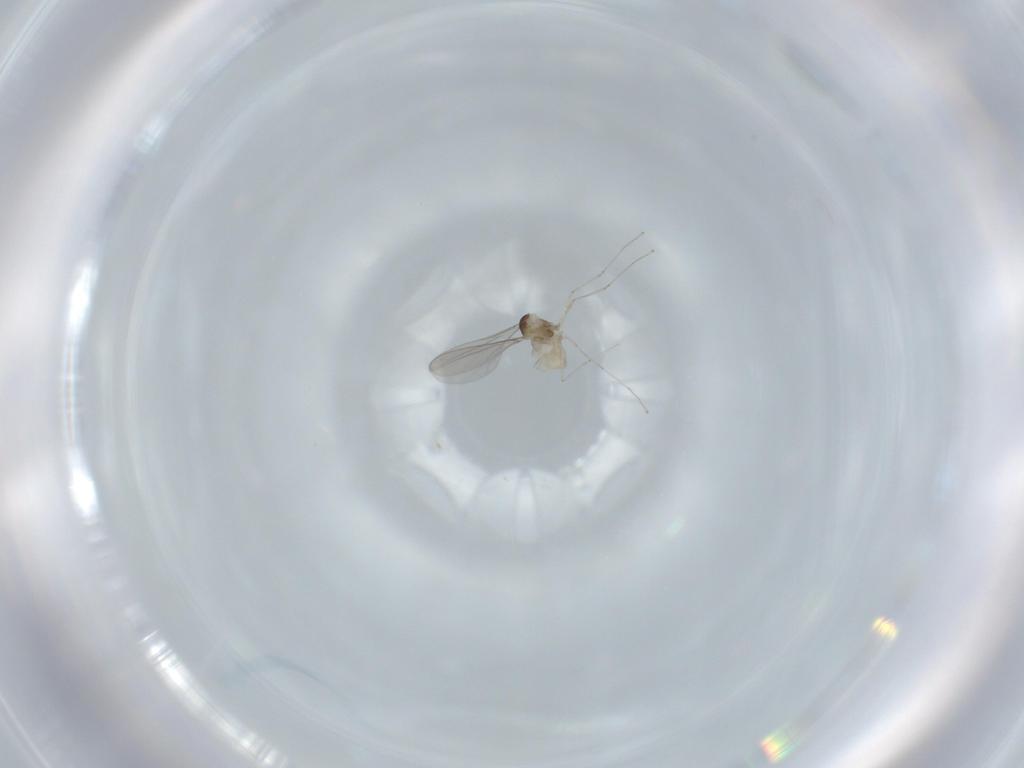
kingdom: Animalia
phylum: Arthropoda
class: Insecta
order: Diptera
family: Cecidomyiidae
